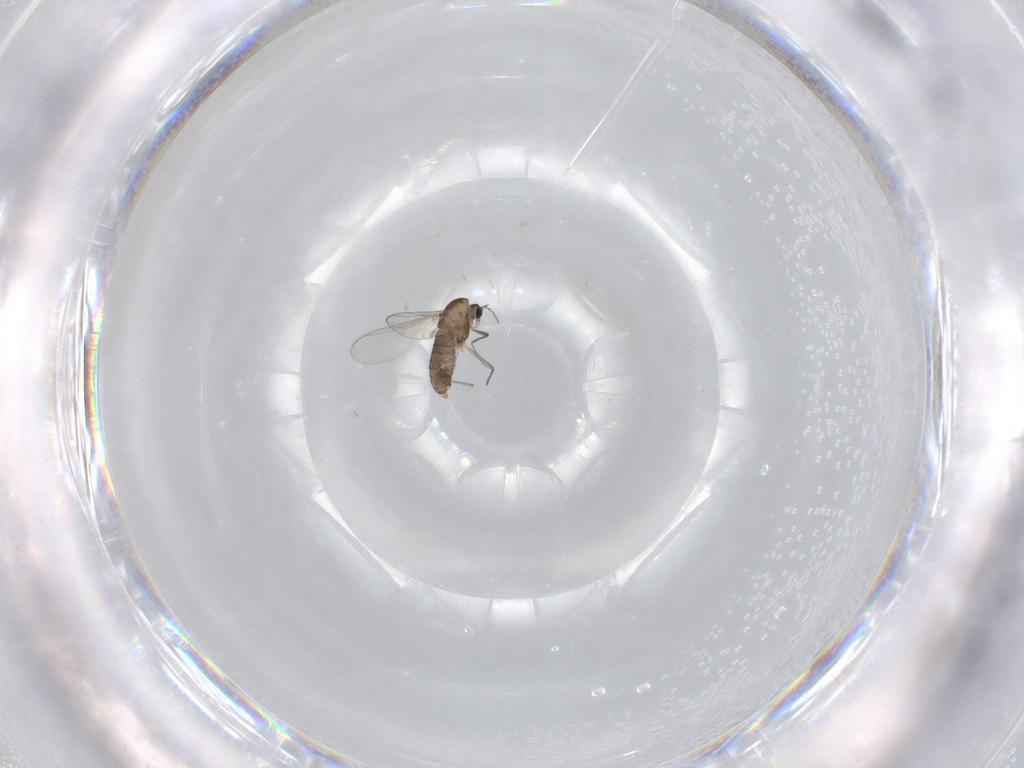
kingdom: Animalia
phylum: Arthropoda
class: Insecta
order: Diptera
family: Chironomidae
